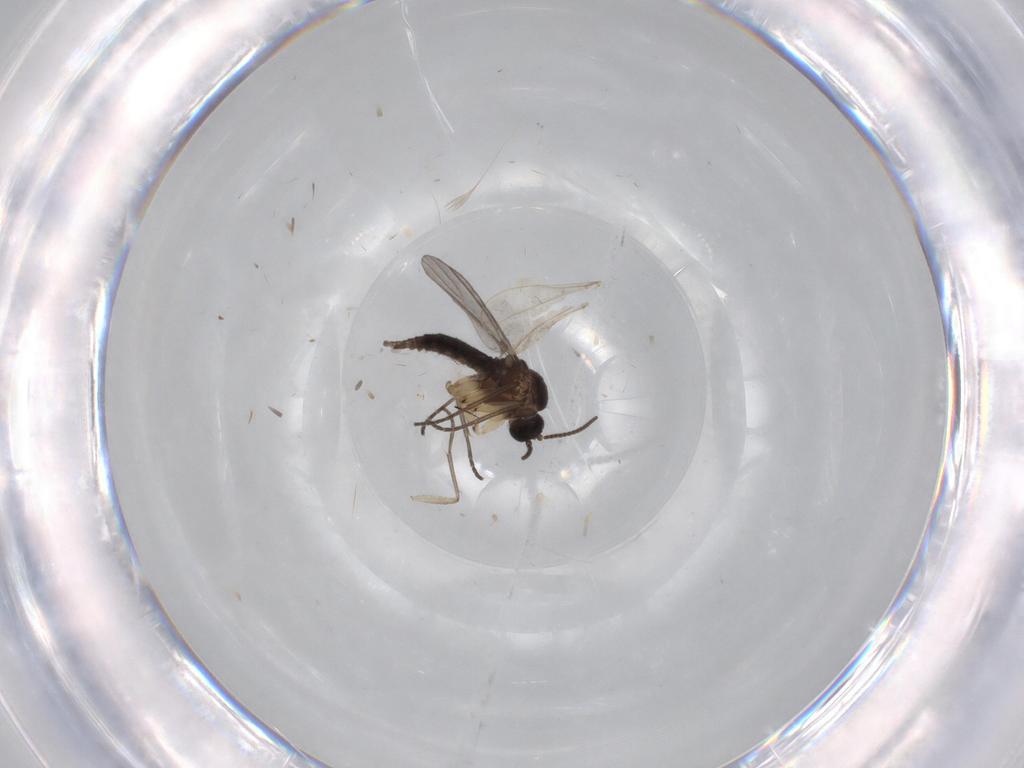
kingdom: Animalia
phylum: Arthropoda
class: Insecta
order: Diptera
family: Sciaridae
